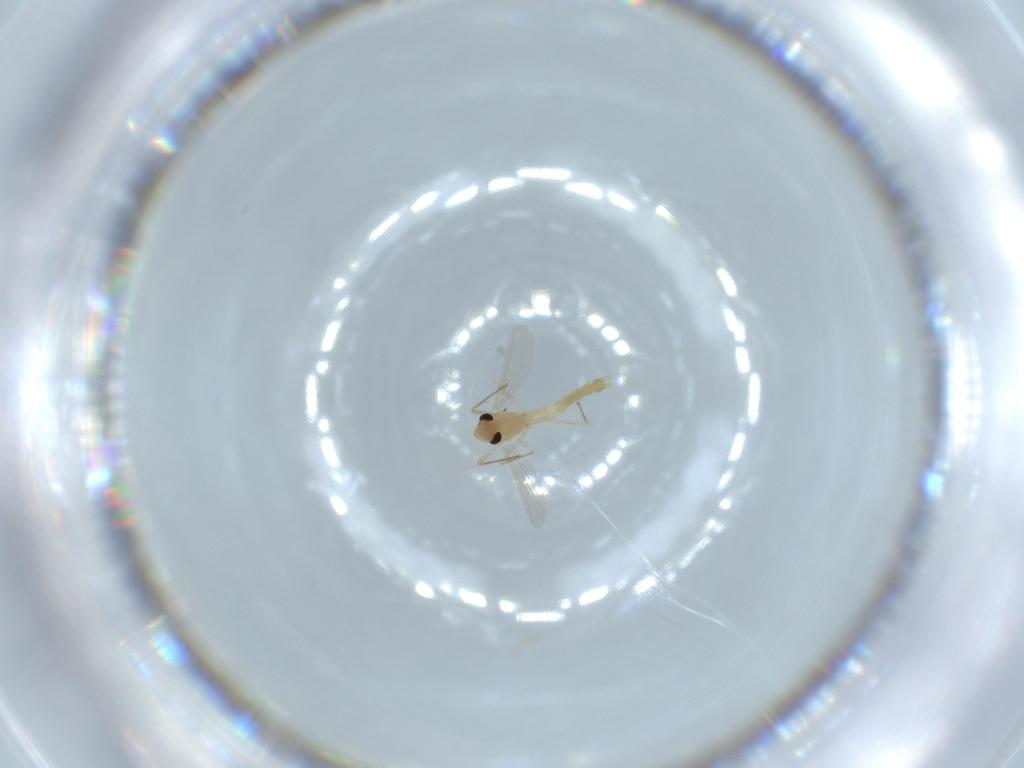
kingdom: Animalia
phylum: Arthropoda
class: Insecta
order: Diptera
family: Chironomidae
